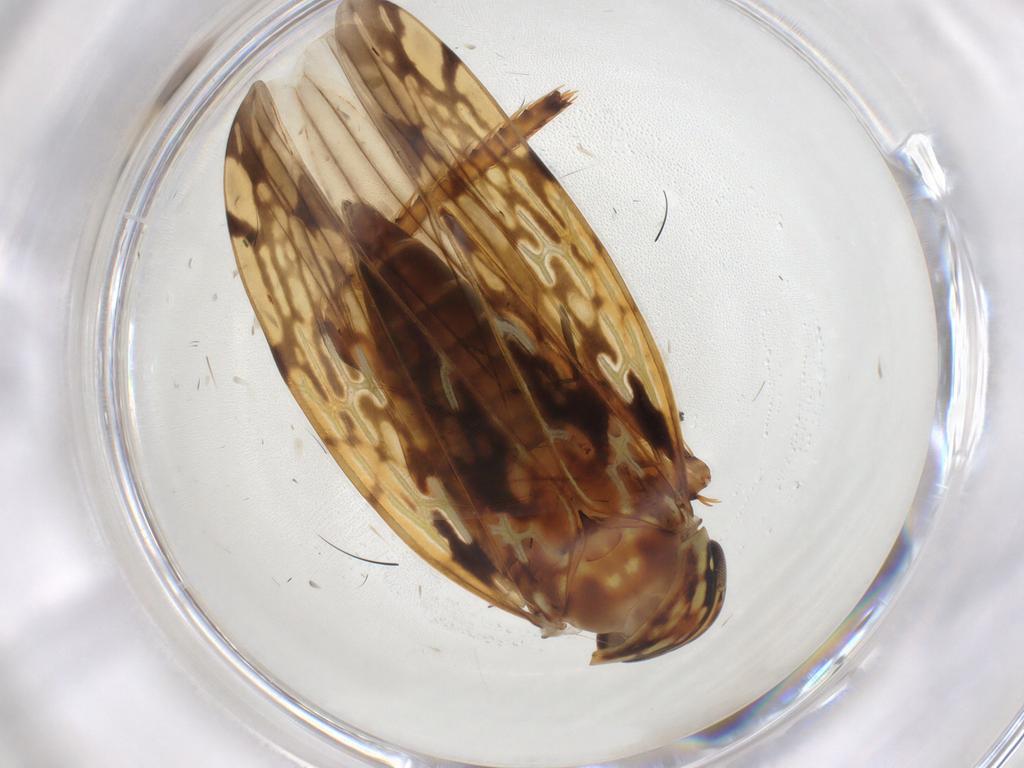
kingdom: Animalia
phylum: Arthropoda
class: Insecta
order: Hemiptera
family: Cicadellidae
